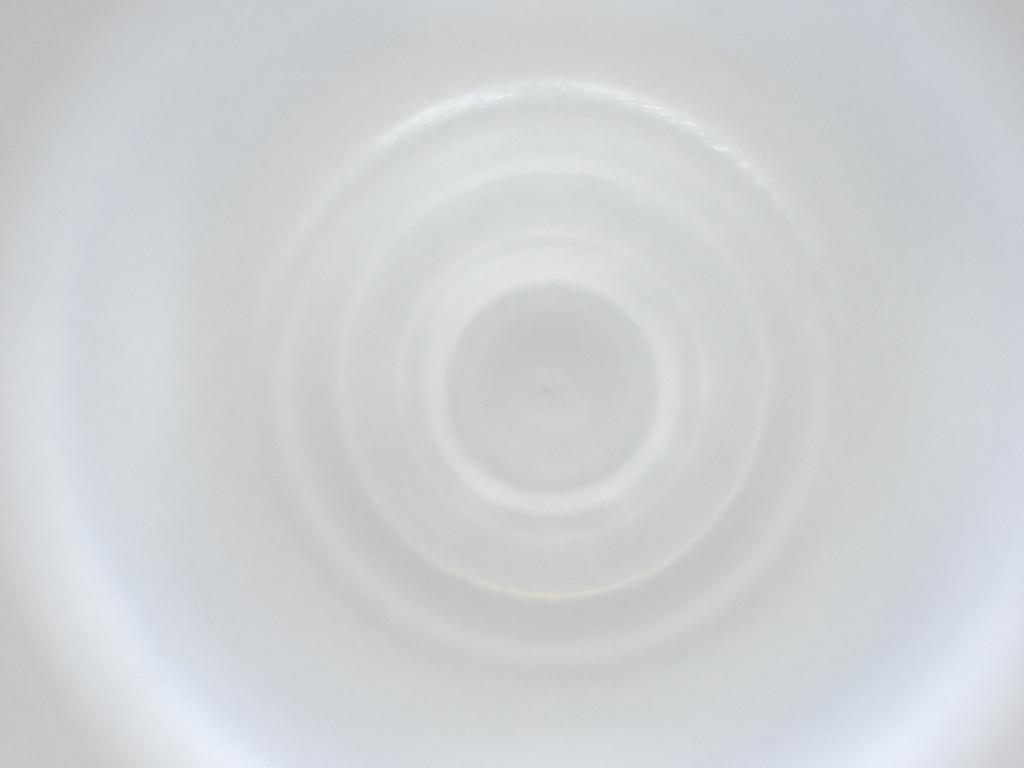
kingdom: Animalia
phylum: Arthropoda
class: Insecta
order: Diptera
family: Cecidomyiidae
